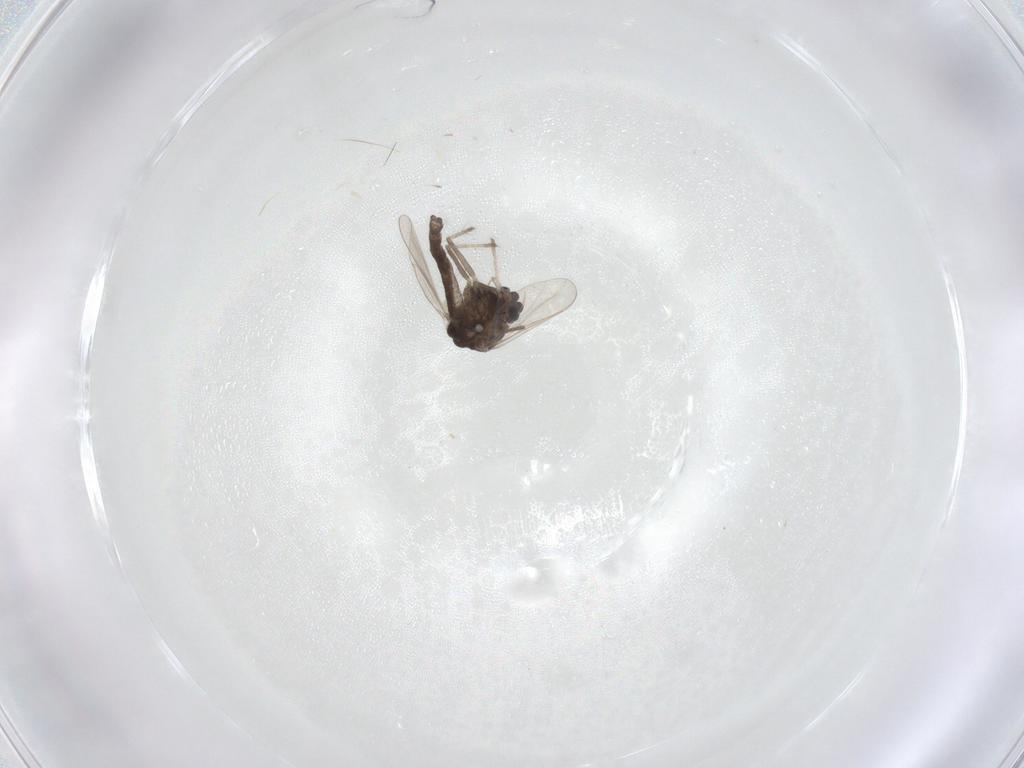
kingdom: Animalia
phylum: Arthropoda
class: Insecta
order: Diptera
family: Chironomidae
